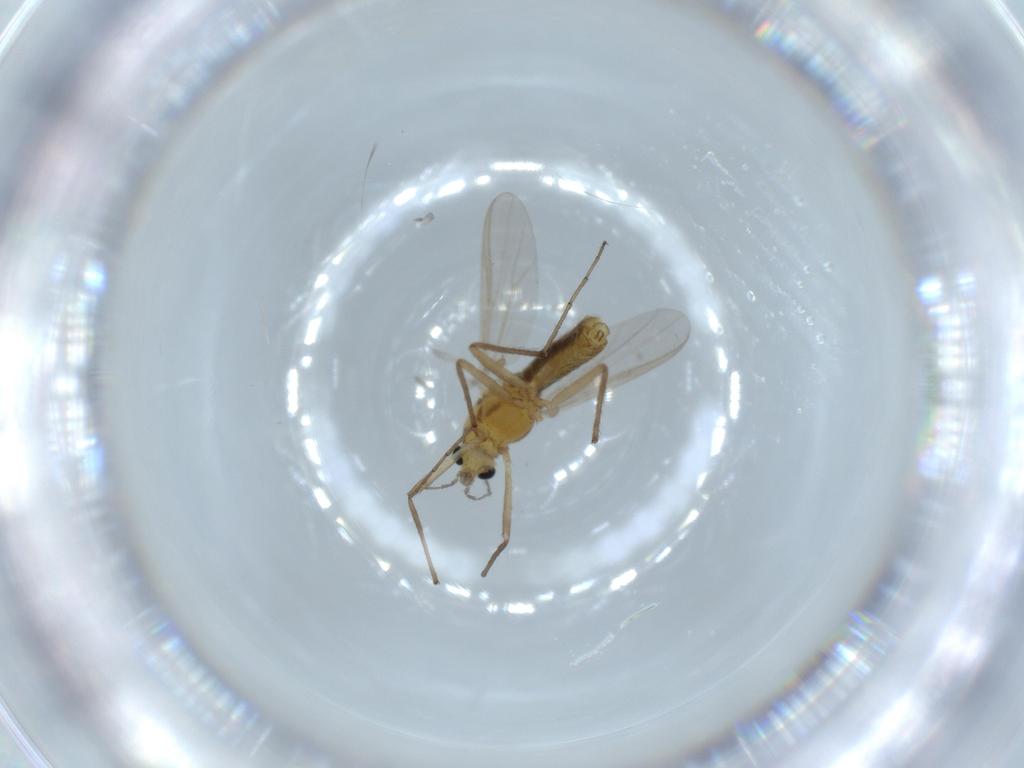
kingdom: Animalia
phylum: Arthropoda
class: Insecta
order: Diptera
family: Chironomidae
